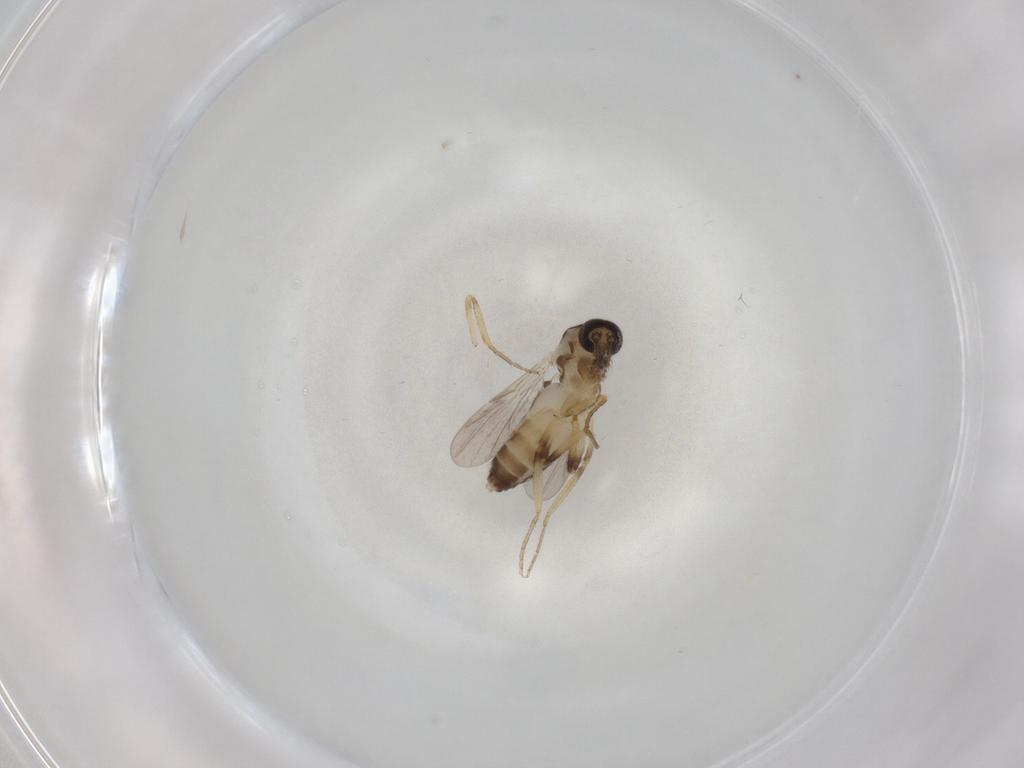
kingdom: Animalia
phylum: Arthropoda
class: Insecta
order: Diptera
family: Ceratopogonidae
